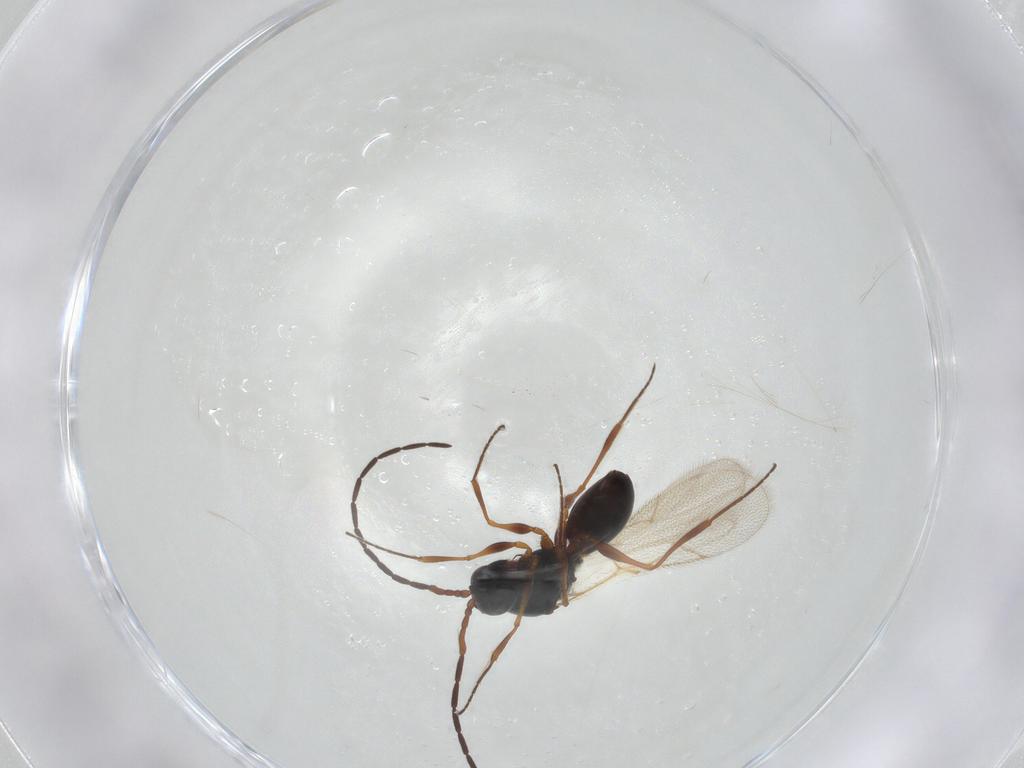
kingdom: Animalia
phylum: Arthropoda
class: Insecta
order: Hymenoptera
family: Figitidae
